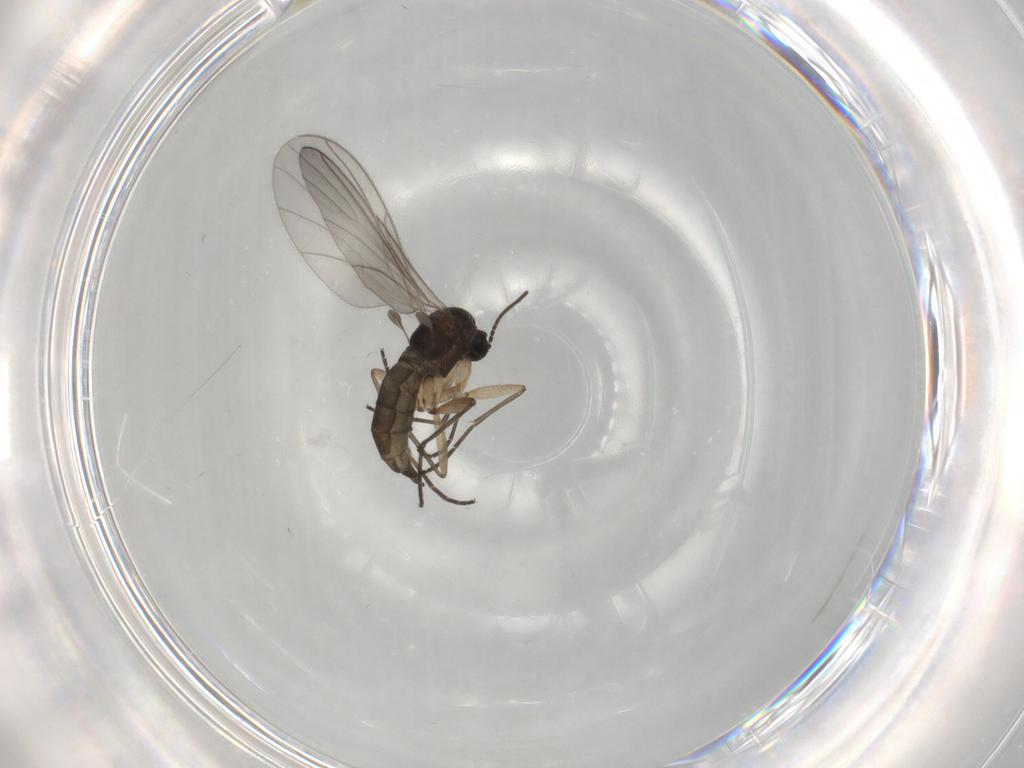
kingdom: Animalia
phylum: Arthropoda
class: Insecta
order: Diptera
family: Sciaridae
